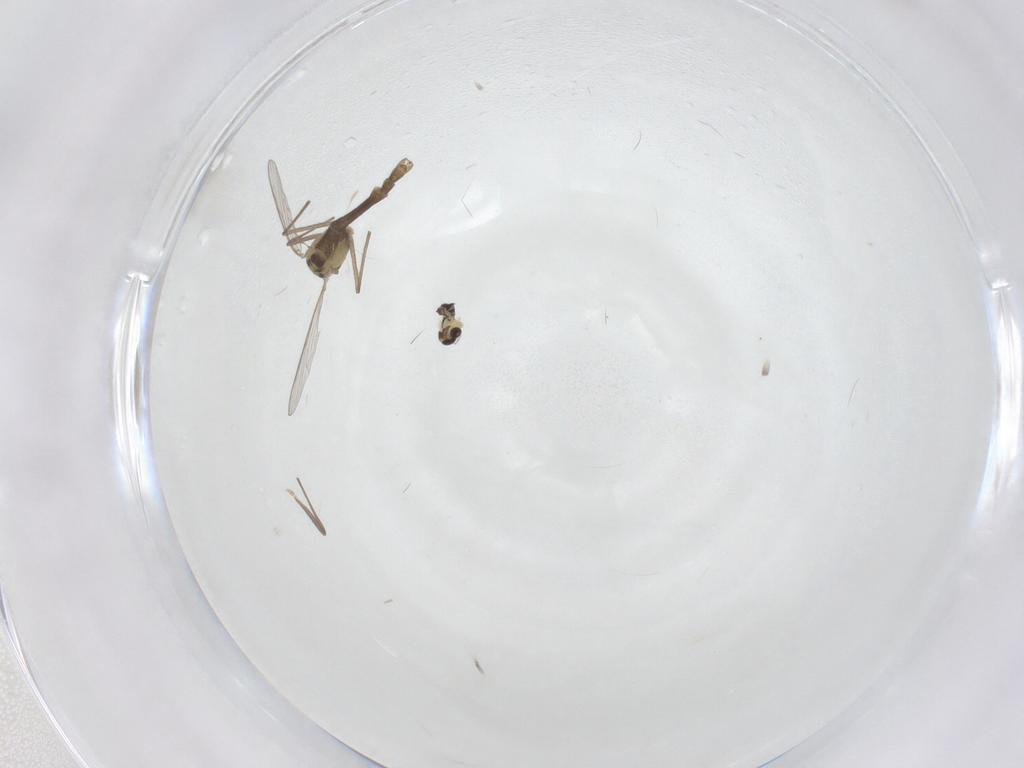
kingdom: Animalia
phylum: Arthropoda
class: Insecta
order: Diptera
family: Chironomidae
